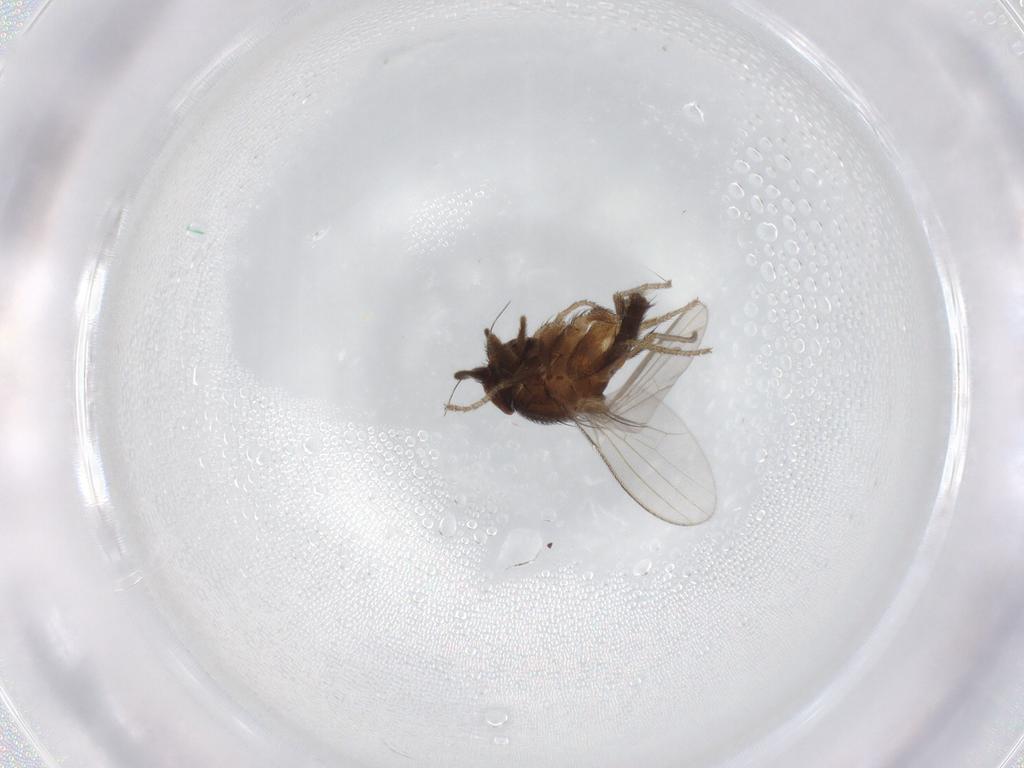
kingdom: Animalia
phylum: Arthropoda
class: Insecta
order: Diptera
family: Milichiidae
